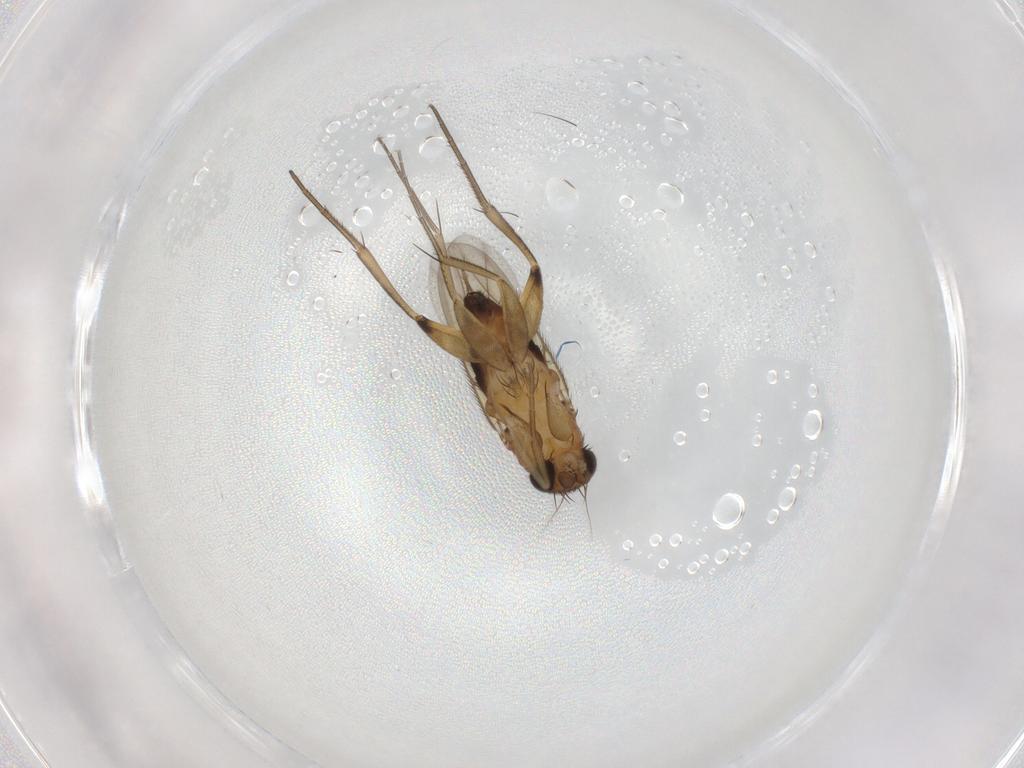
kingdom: Animalia
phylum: Arthropoda
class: Insecta
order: Diptera
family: Phoridae
